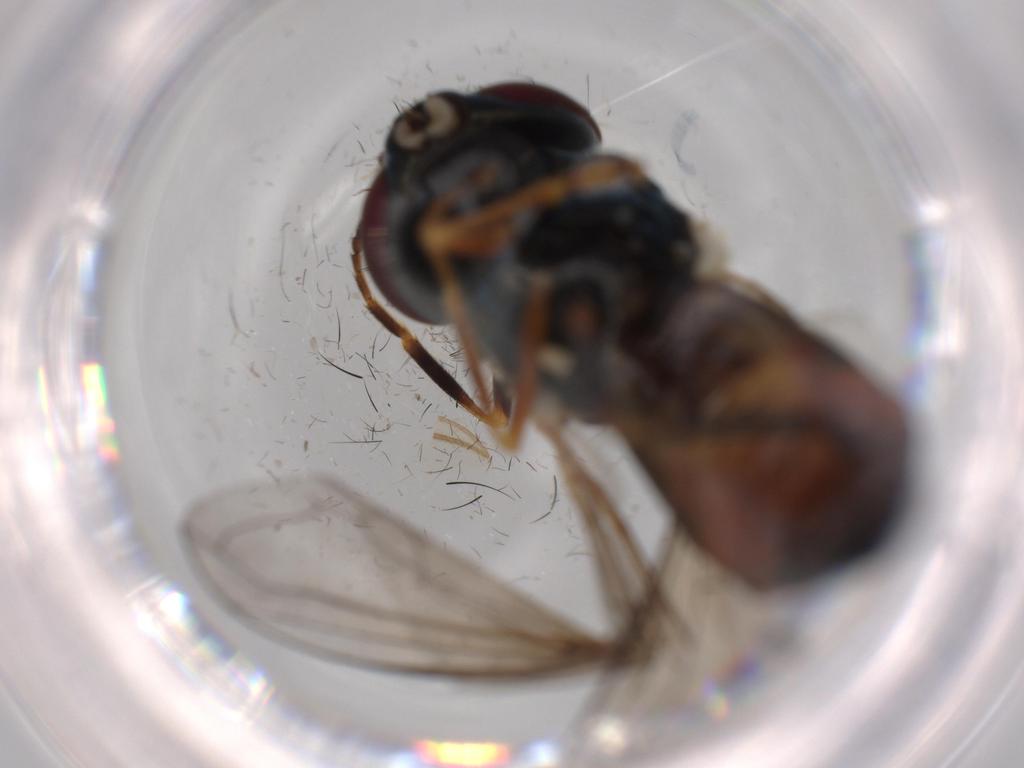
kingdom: Animalia
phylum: Arthropoda
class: Insecta
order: Diptera
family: Syrphidae
